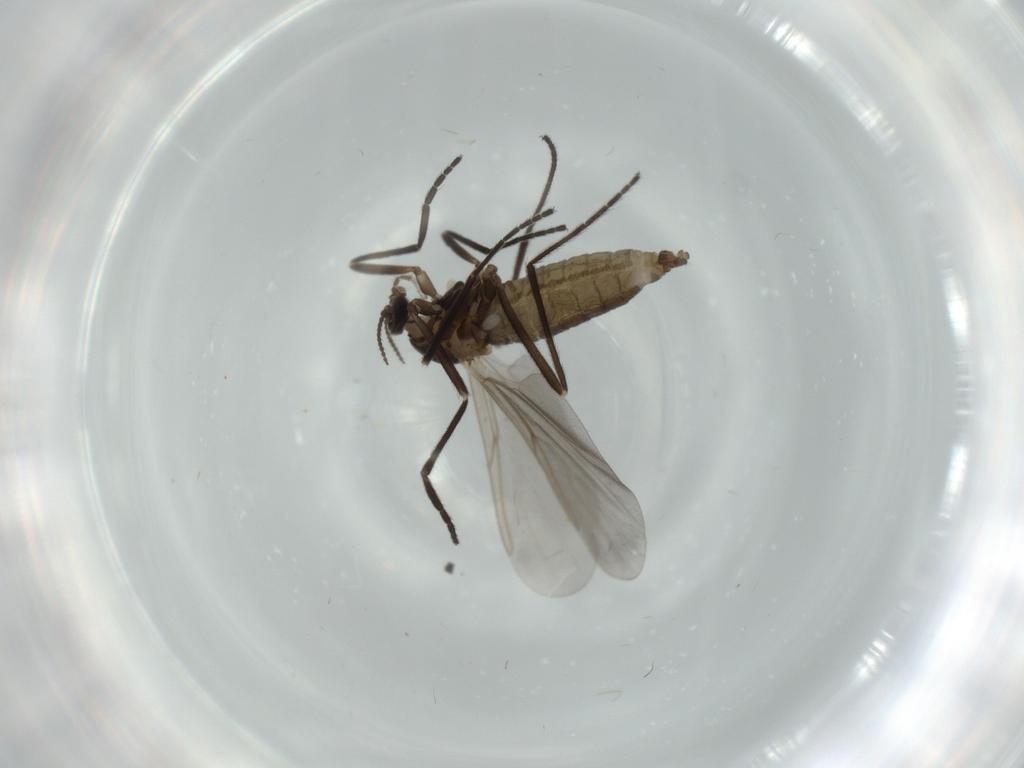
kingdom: Animalia
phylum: Arthropoda
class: Insecta
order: Diptera
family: Cecidomyiidae
